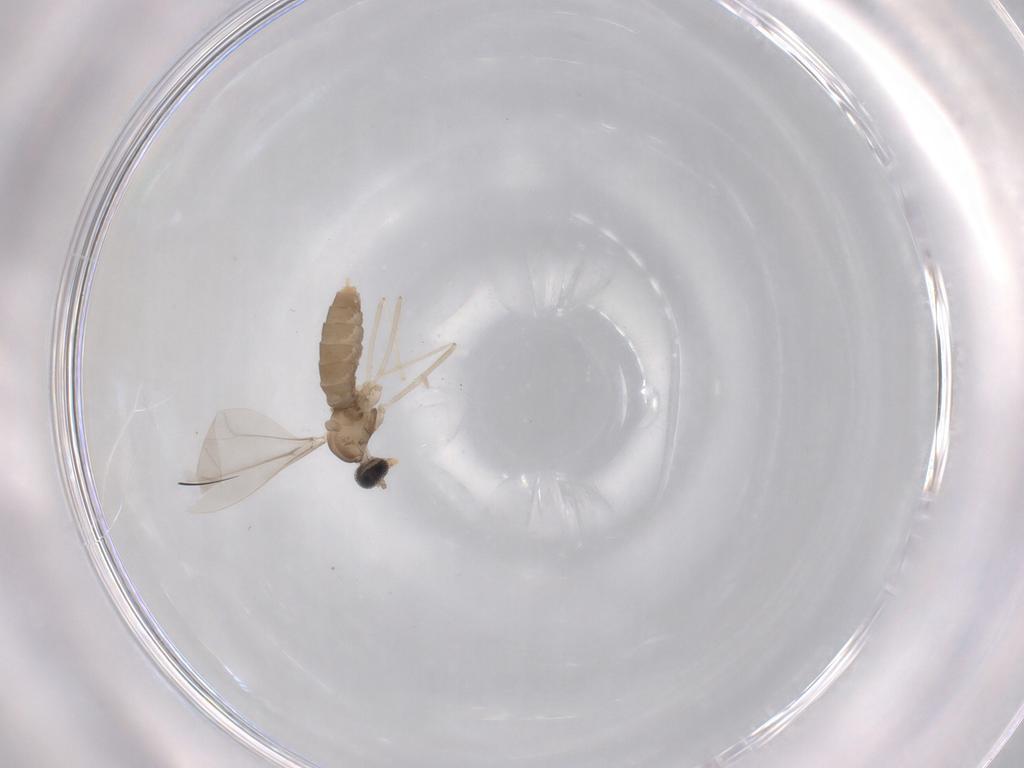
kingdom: Animalia
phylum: Arthropoda
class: Insecta
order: Diptera
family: Cecidomyiidae
